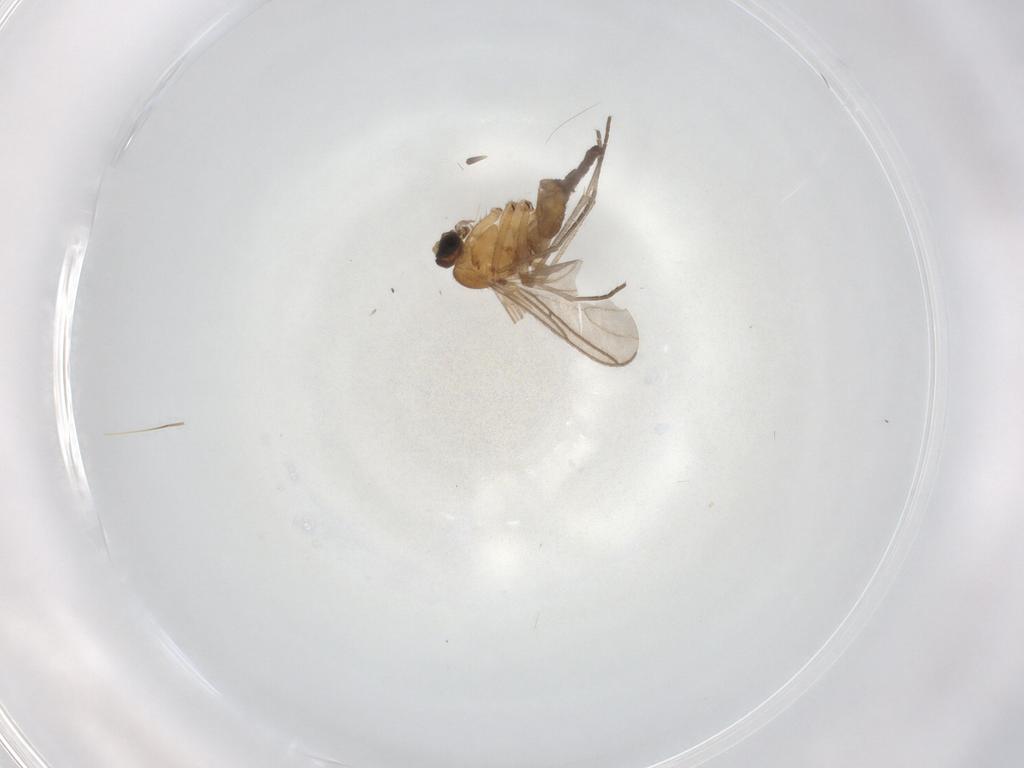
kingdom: Animalia
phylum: Arthropoda
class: Insecta
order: Diptera
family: Sciaridae
